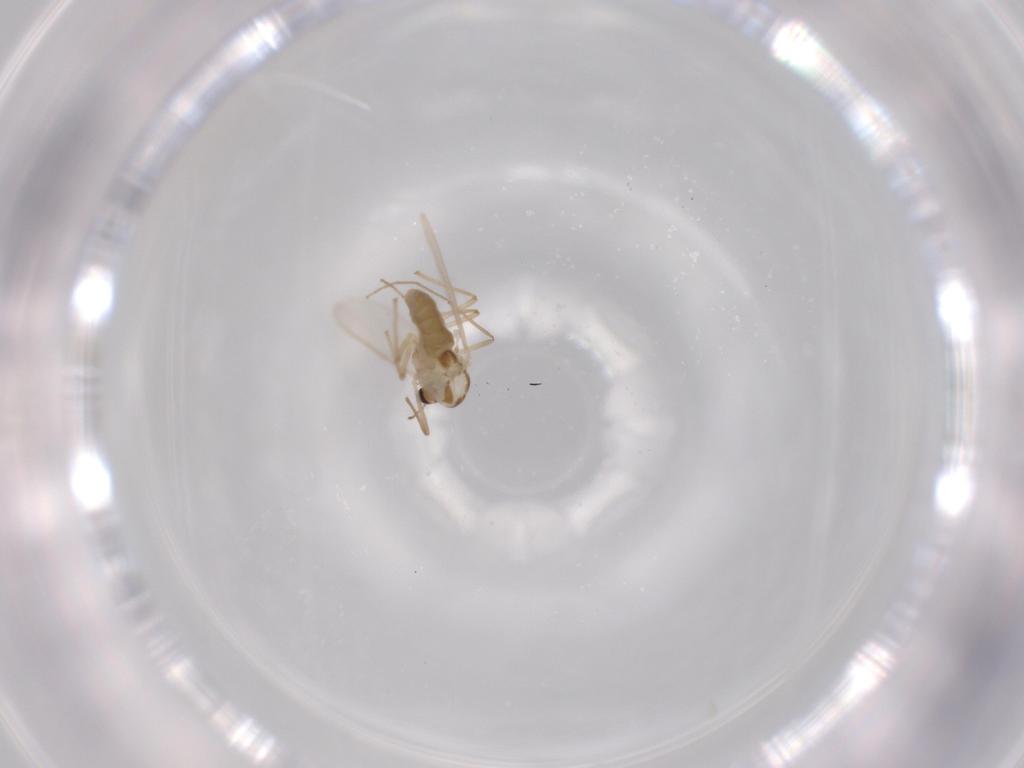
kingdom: Animalia
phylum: Arthropoda
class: Insecta
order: Diptera
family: Chironomidae
